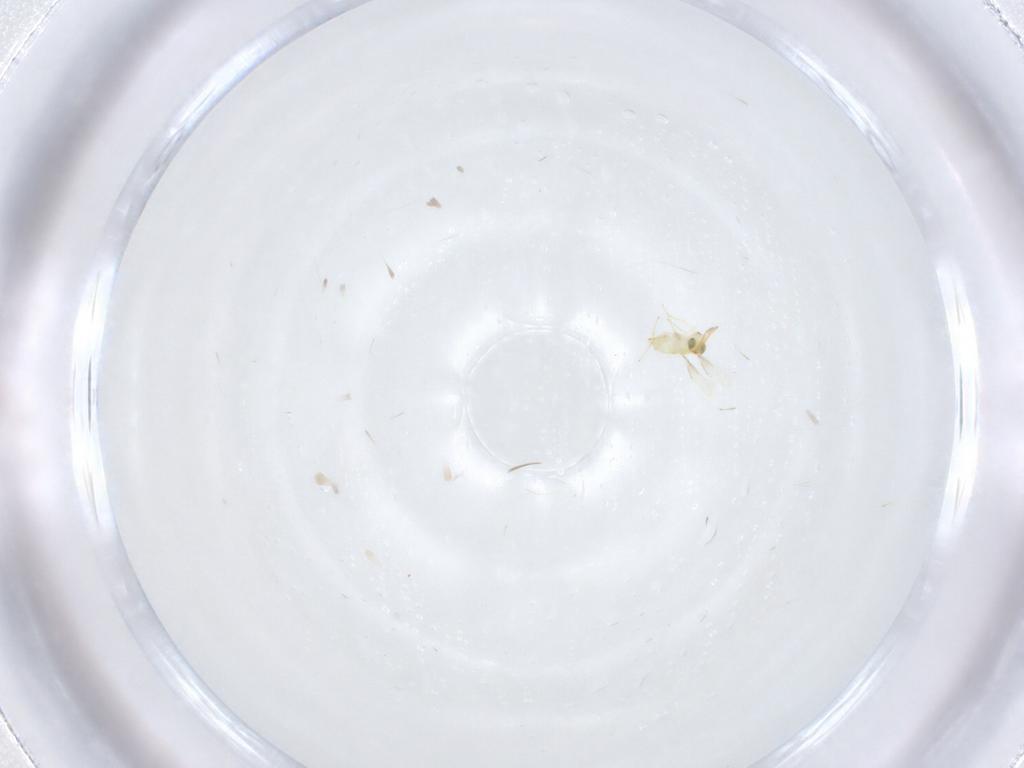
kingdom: Animalia
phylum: Arthropoda
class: Insecta
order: Hymenoptera
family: Aphelinidae
